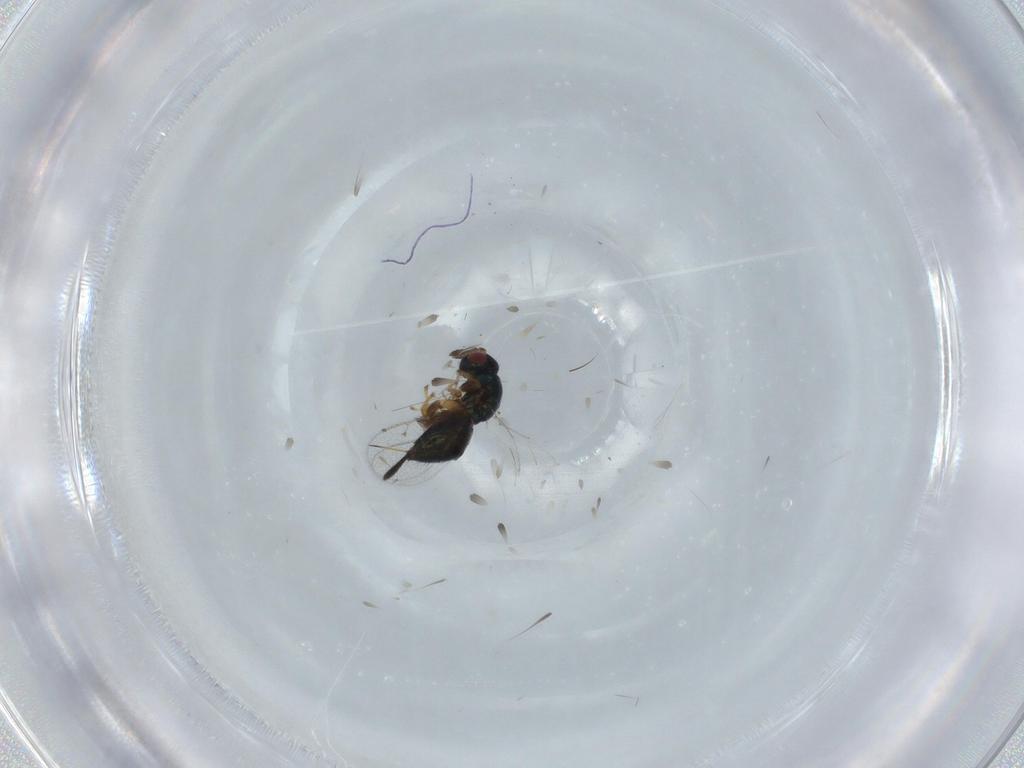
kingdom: Animalia
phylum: Arthropoda
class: Insecta
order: Hymenoptera
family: Torymidae
